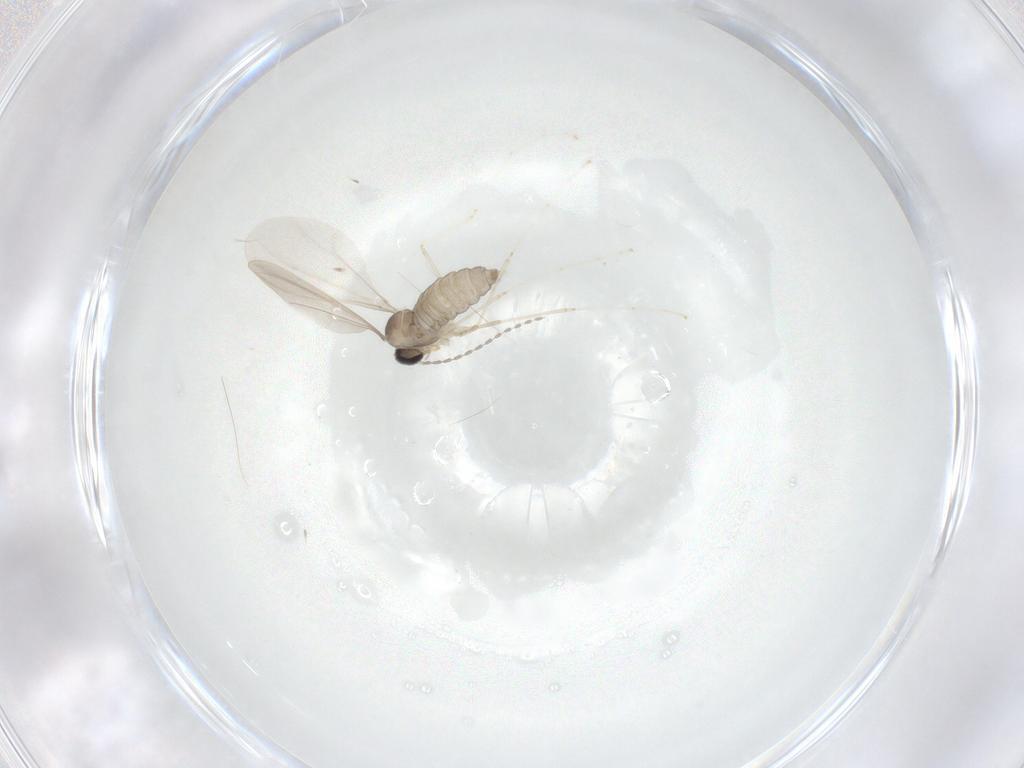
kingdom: Animalia
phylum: Arthropoda
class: Insecta
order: Diptera
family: Cecidomyiidae
